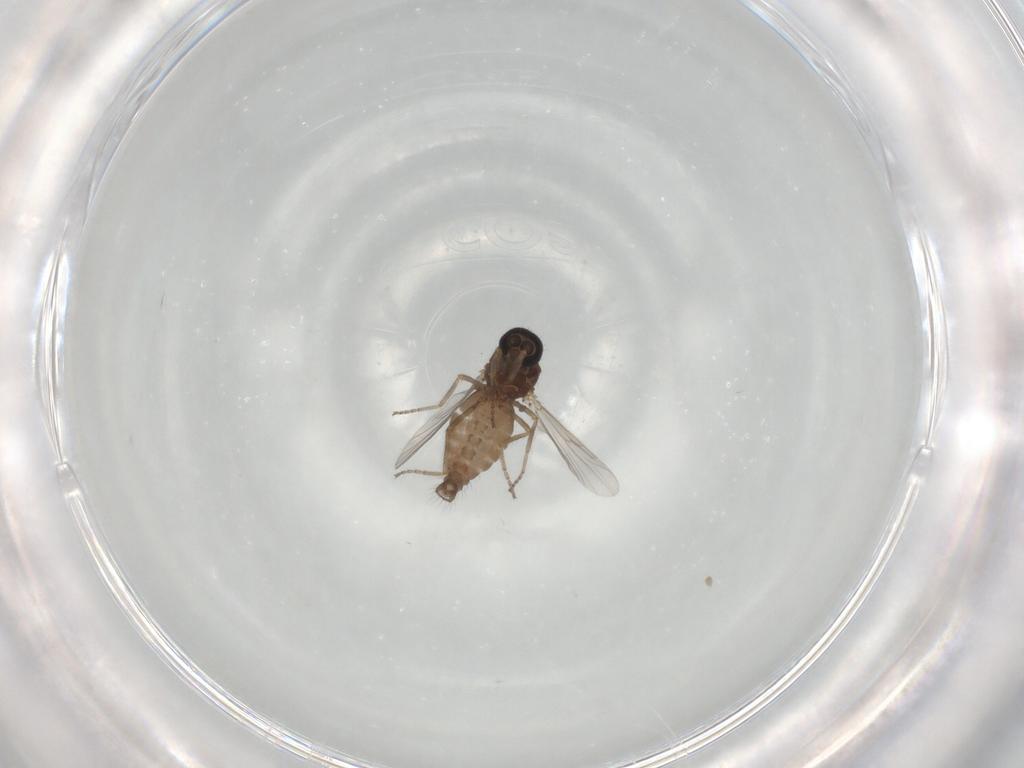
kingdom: Animalia
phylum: Arthropoda
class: Insecta
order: Diptera
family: Ceratopogonidae
